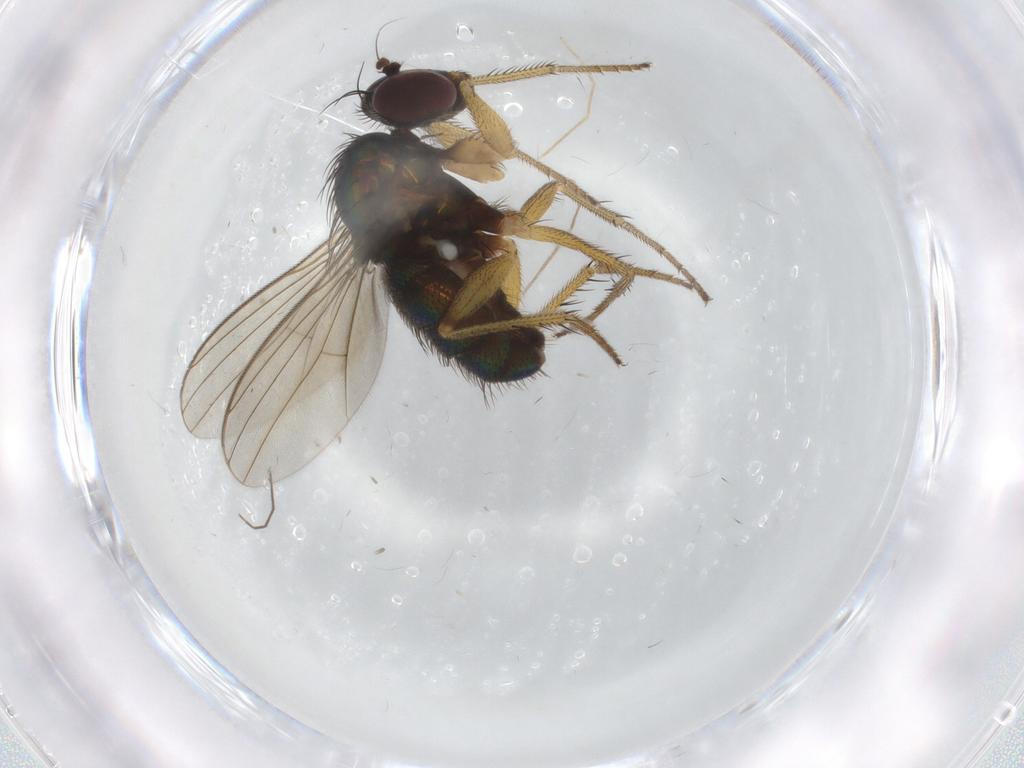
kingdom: Animalia
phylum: Arthropoda
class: Insecta
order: Diptera
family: Dolichopodidae
